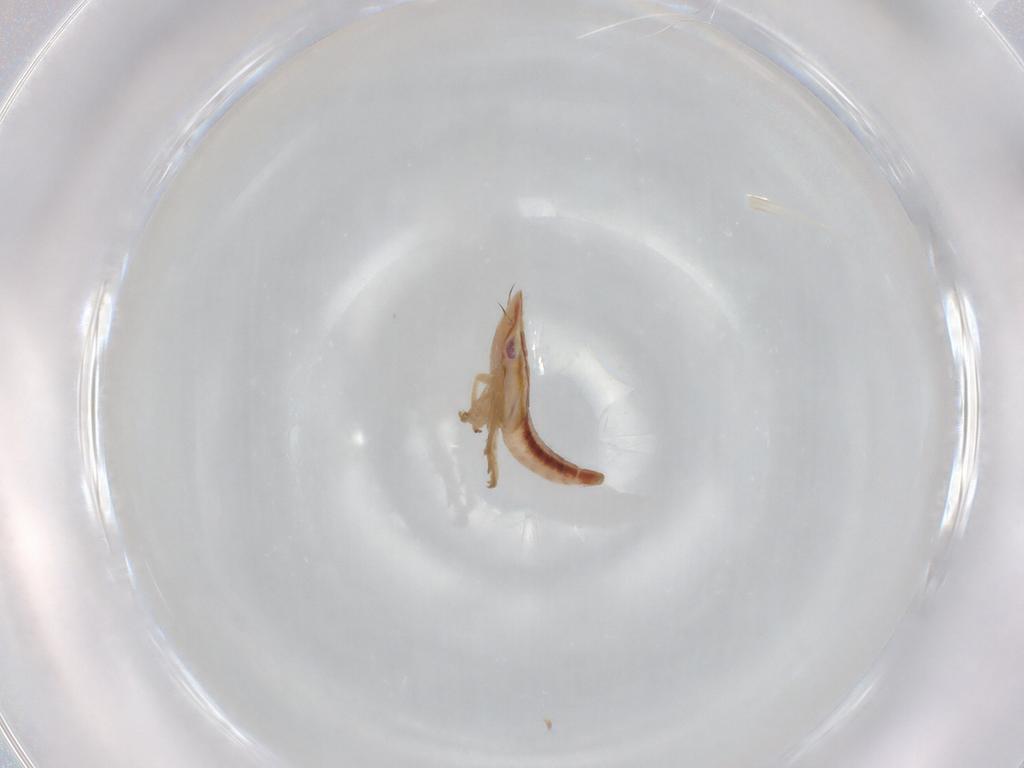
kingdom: Animalia
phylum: Arthropoda
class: Insecta
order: Hemiptera
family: Cicadellidae
